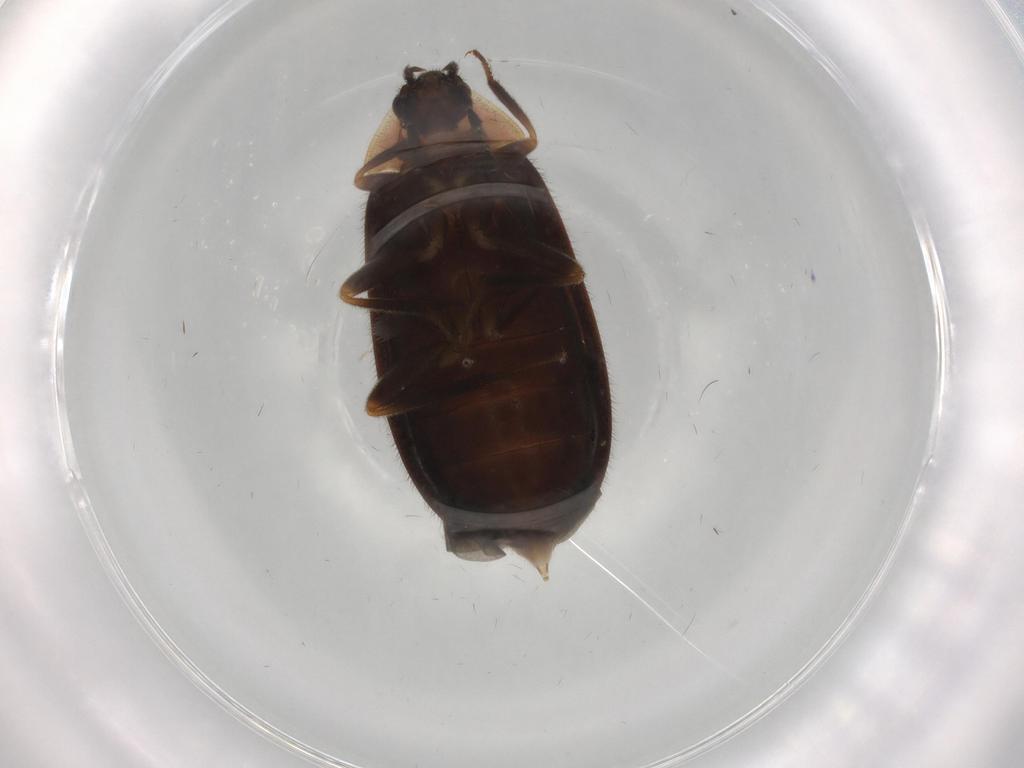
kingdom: Animalia
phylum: Arthropoda
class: Insecta
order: Coleoptera
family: Ptilodactylidae
